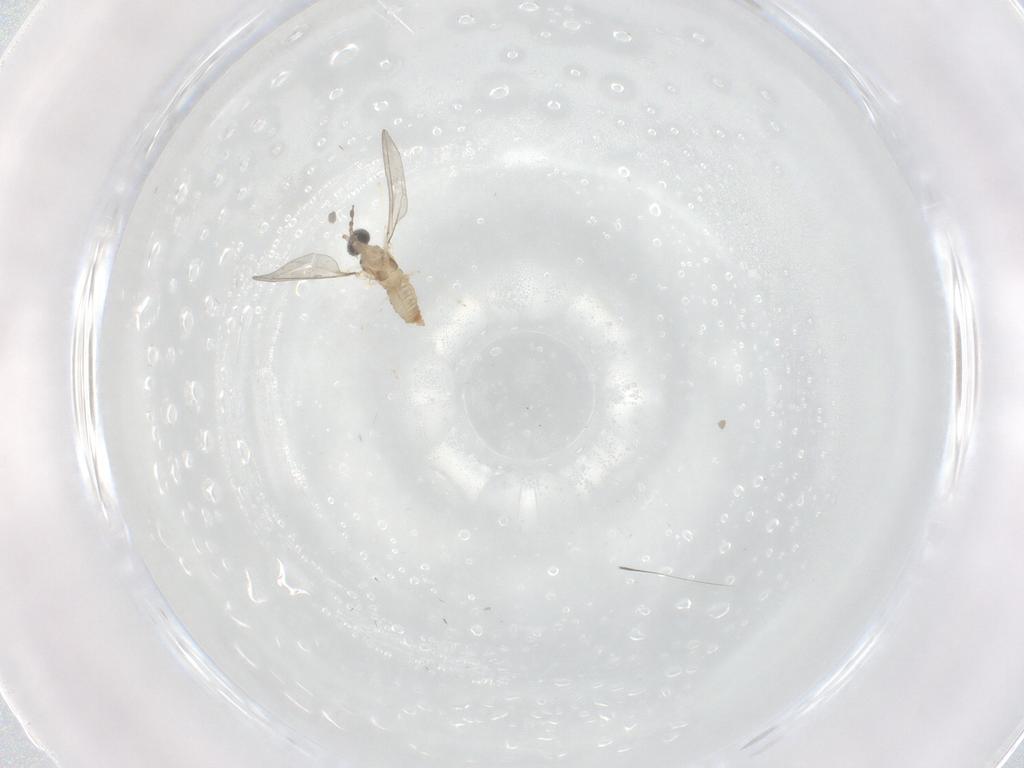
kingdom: Animalia
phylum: Arthropoda
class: Insecta
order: Diptera
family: Cecidomyiidae
